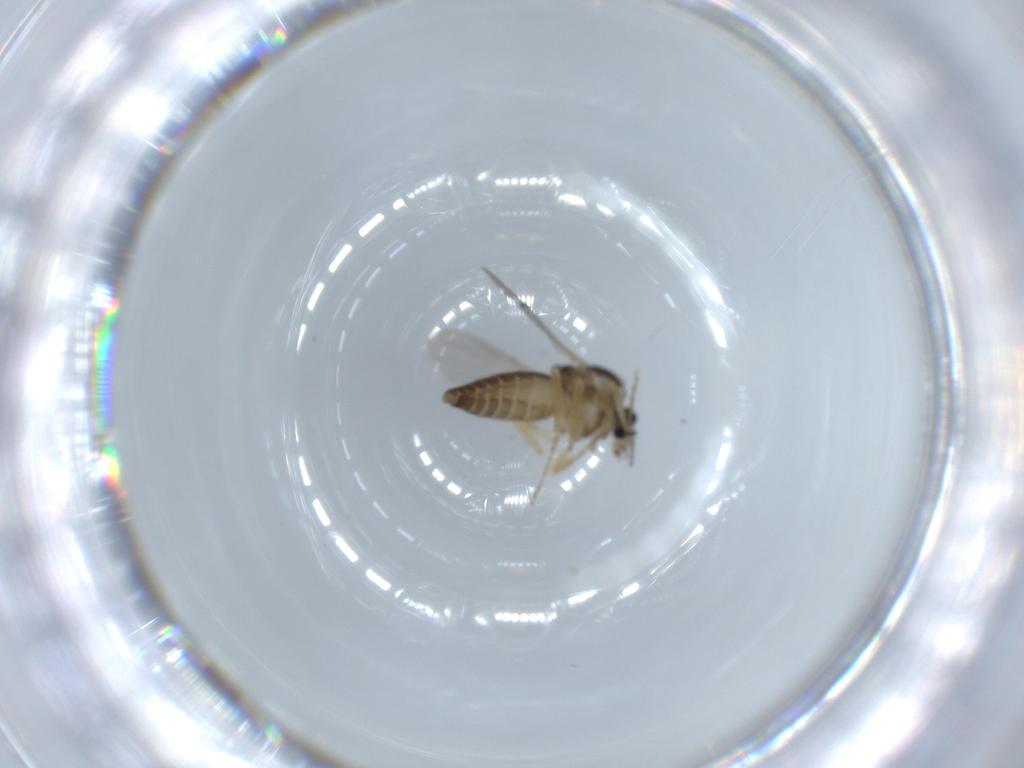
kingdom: Animalia
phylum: Arthropoda
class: Insecta
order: Diptera
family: Ceratopogonidae
